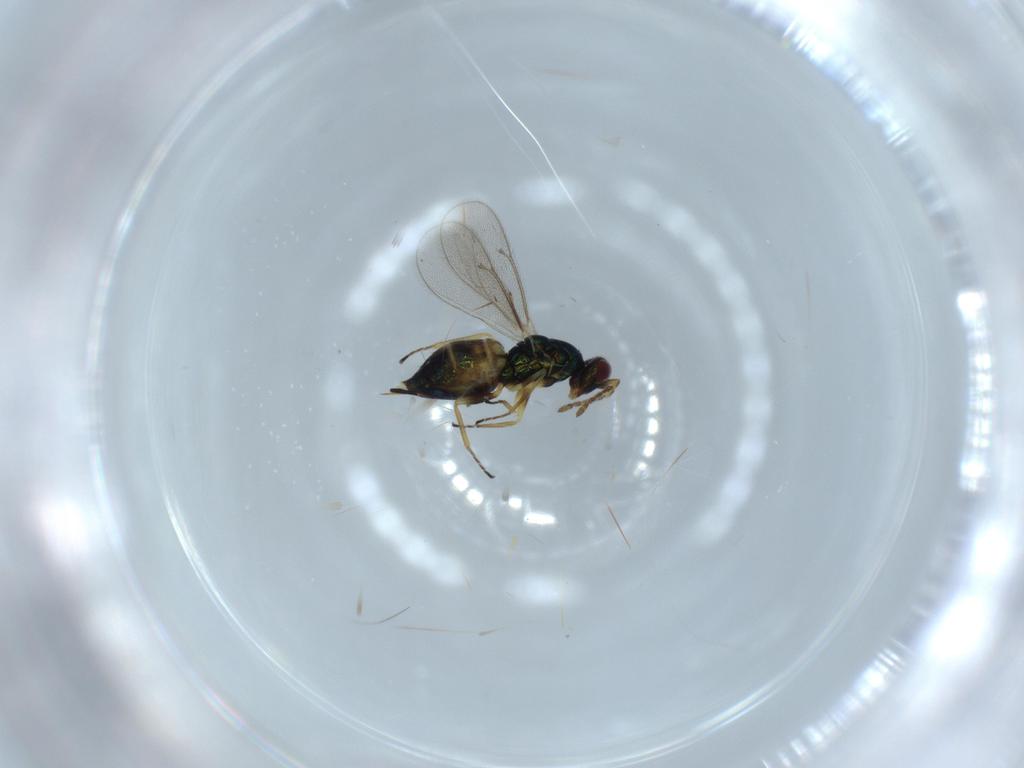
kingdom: Animalia
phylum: Arthropoda
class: Insecta
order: Hymenoptera
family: Eulophidae
